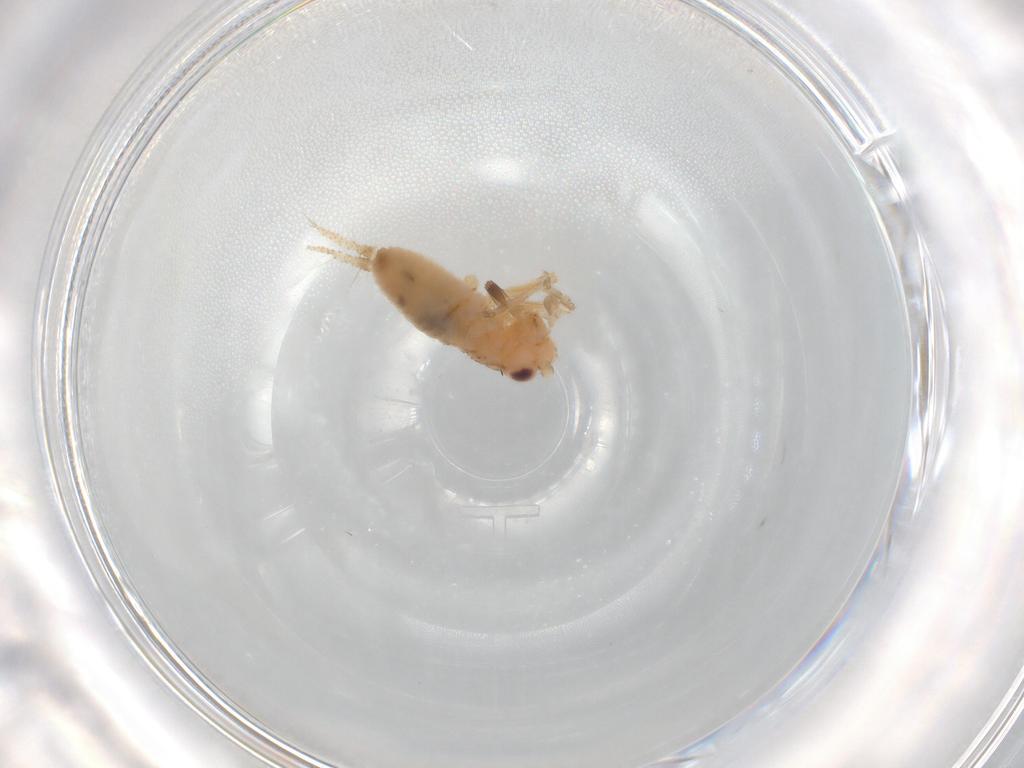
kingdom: Animalia
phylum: Arthropoda
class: Insecta
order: Orthoptera
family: Trigonidiidae
